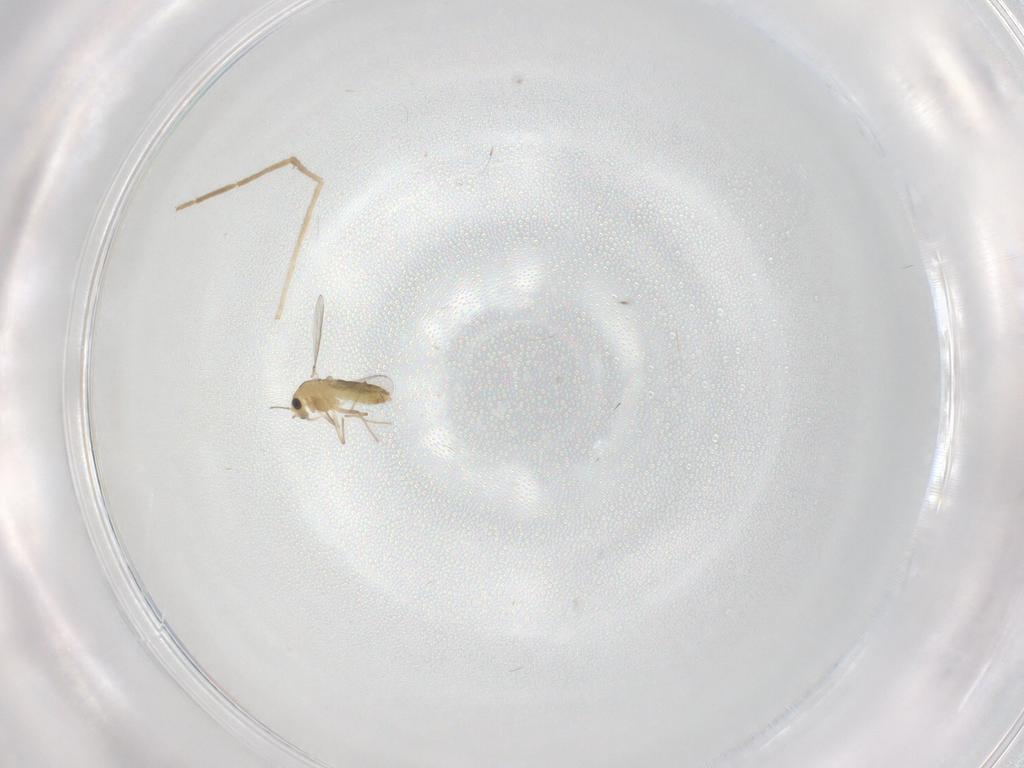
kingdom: Animalia
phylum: Arthropoda
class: Insecta
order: Diptera
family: Chironomidae
